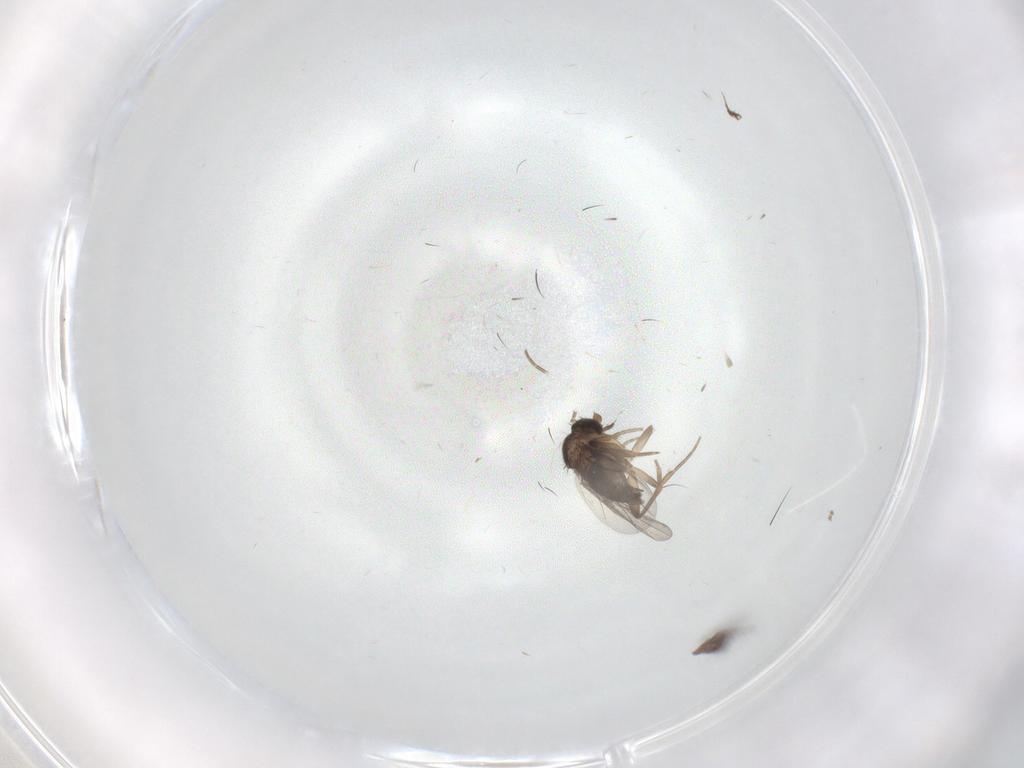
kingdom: Animalia
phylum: Arthropoda
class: Insecta
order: Diptera
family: Phoridae
